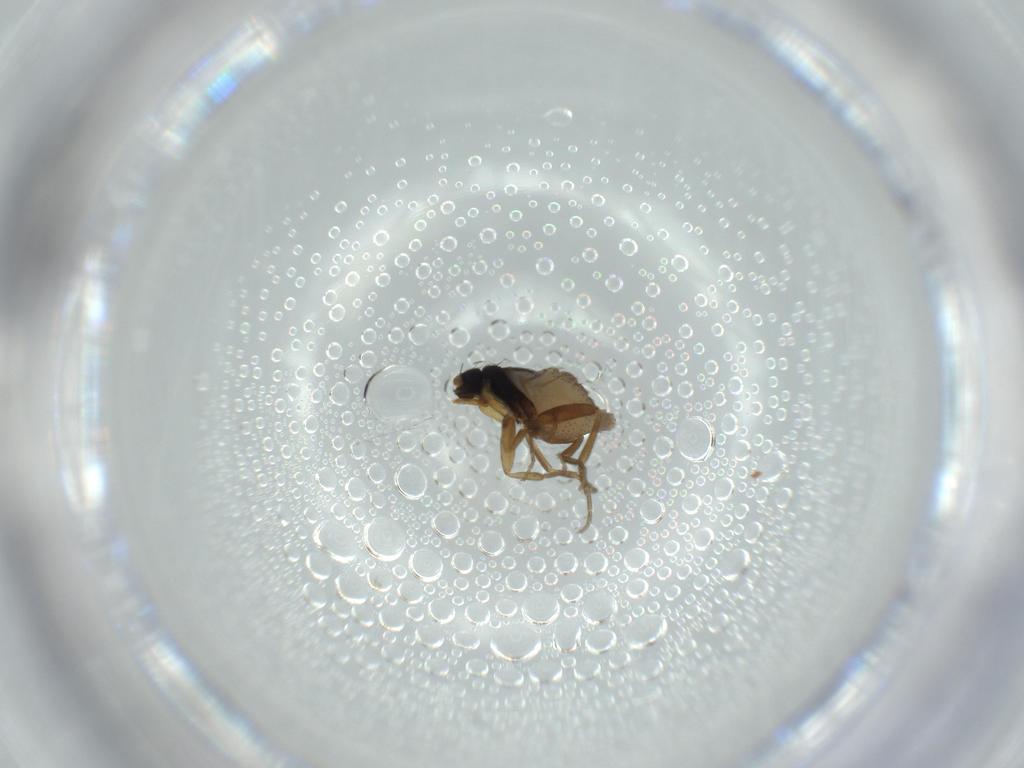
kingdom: Animalia
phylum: Arthropoda
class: Insecta
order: Diptera
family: Phoridae
